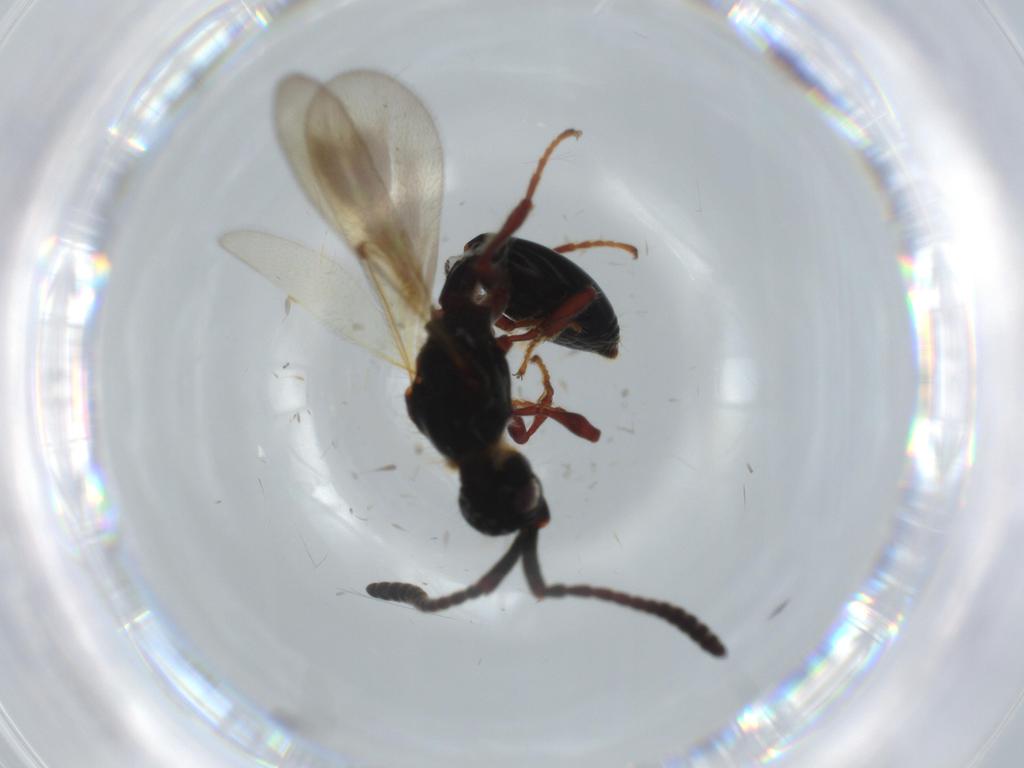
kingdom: Animalia
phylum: Arthropoda
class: Insecta
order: Hymenoptera
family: Diapriidae
